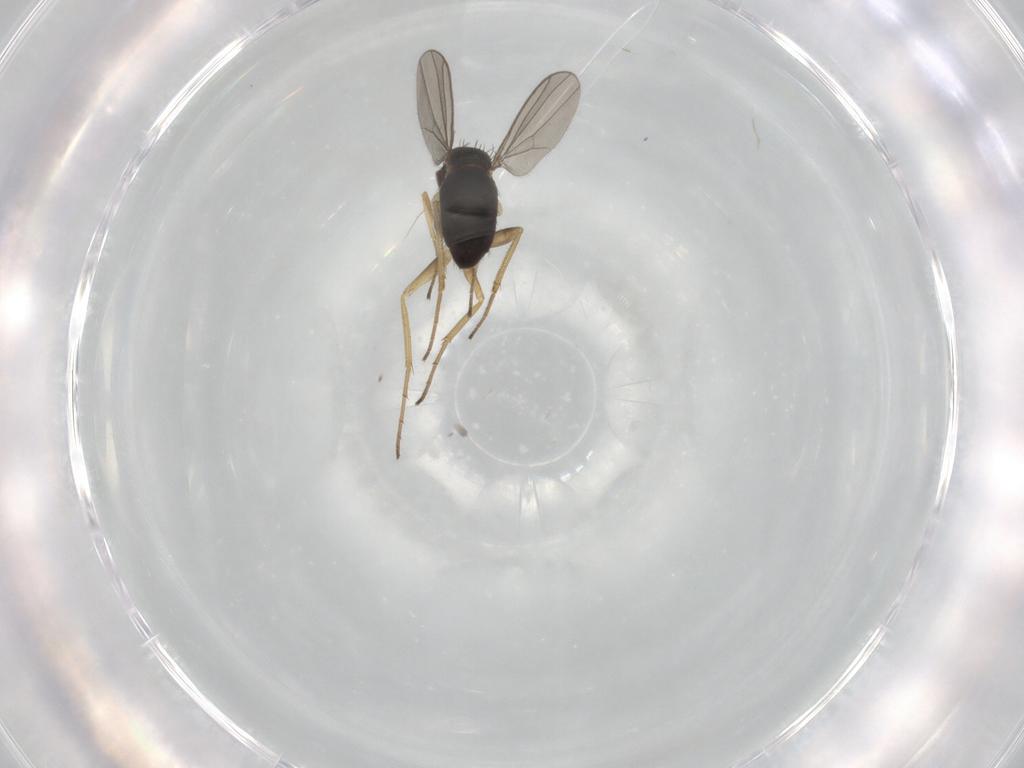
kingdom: Animalia
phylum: Arthropoda
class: Insecta
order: Diptera
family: Dolichopodidae
